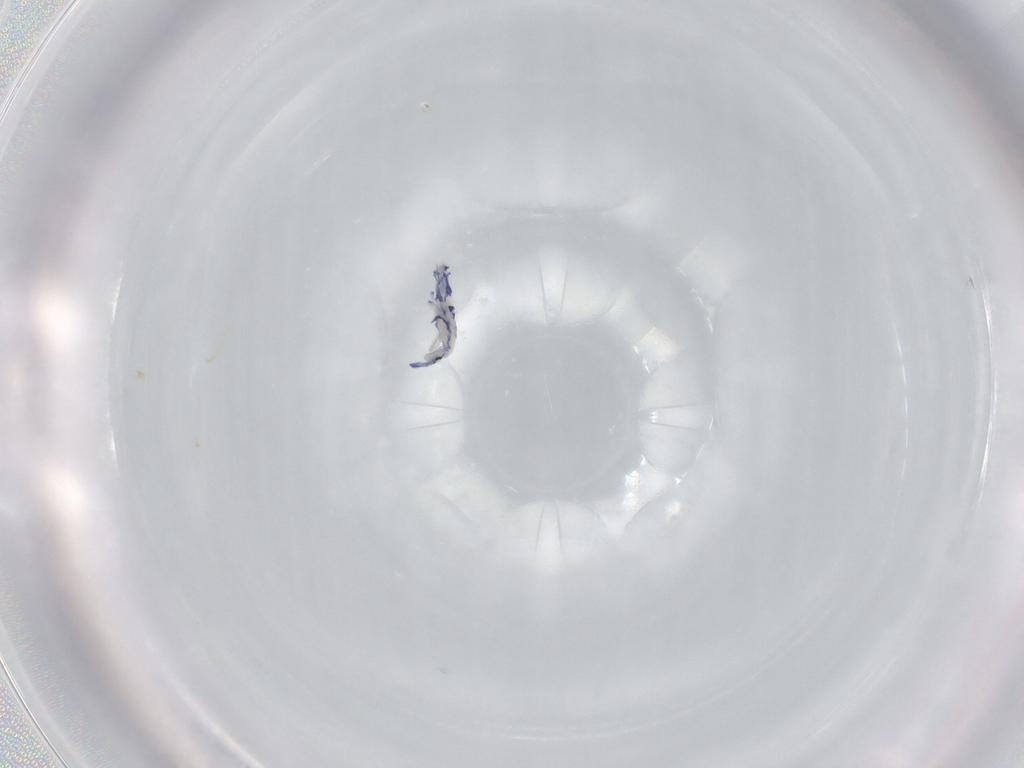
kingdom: Animalia
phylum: Arthropoda
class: Collembola
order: Entomobryomorpha
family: Entomobryidae
